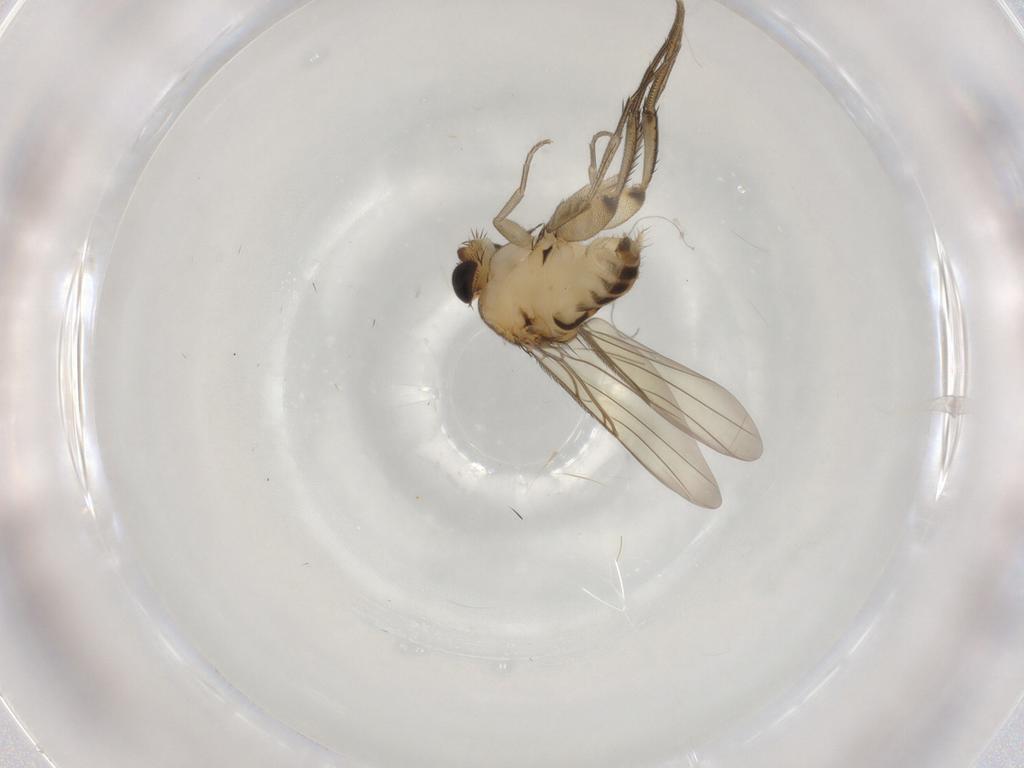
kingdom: Animalia
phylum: Arthropoda
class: Insecta
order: Diptera
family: Phoridae
